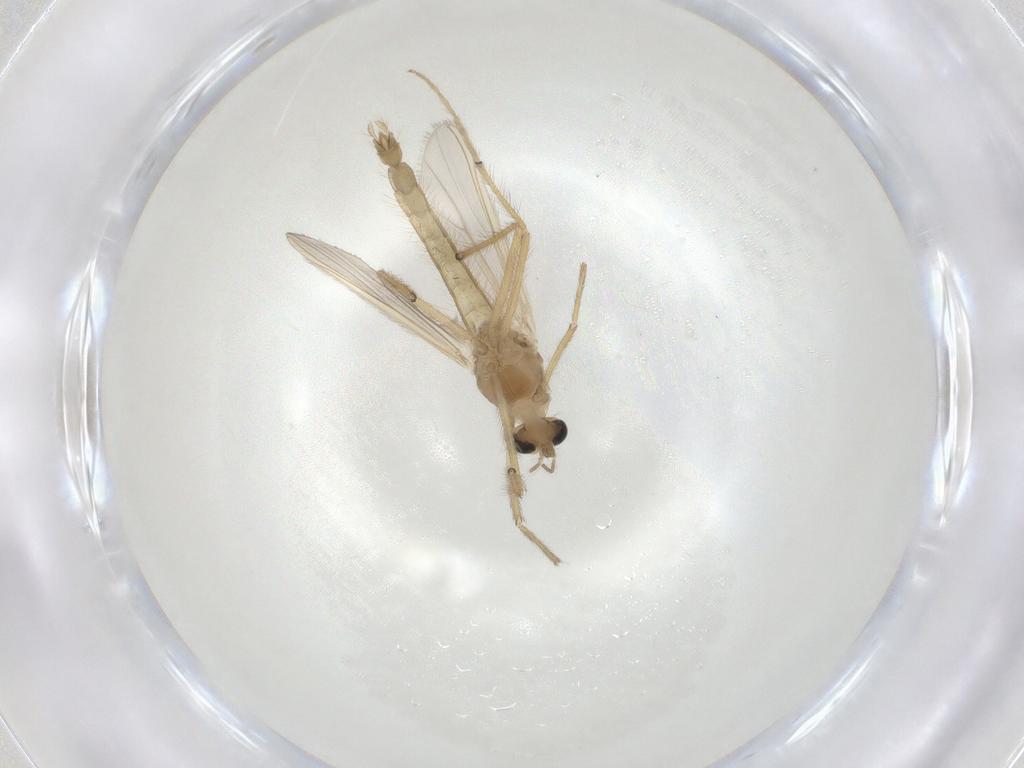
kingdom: Animalia
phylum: Arthropoda
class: Insecta
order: Diptera
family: Chironomidae
